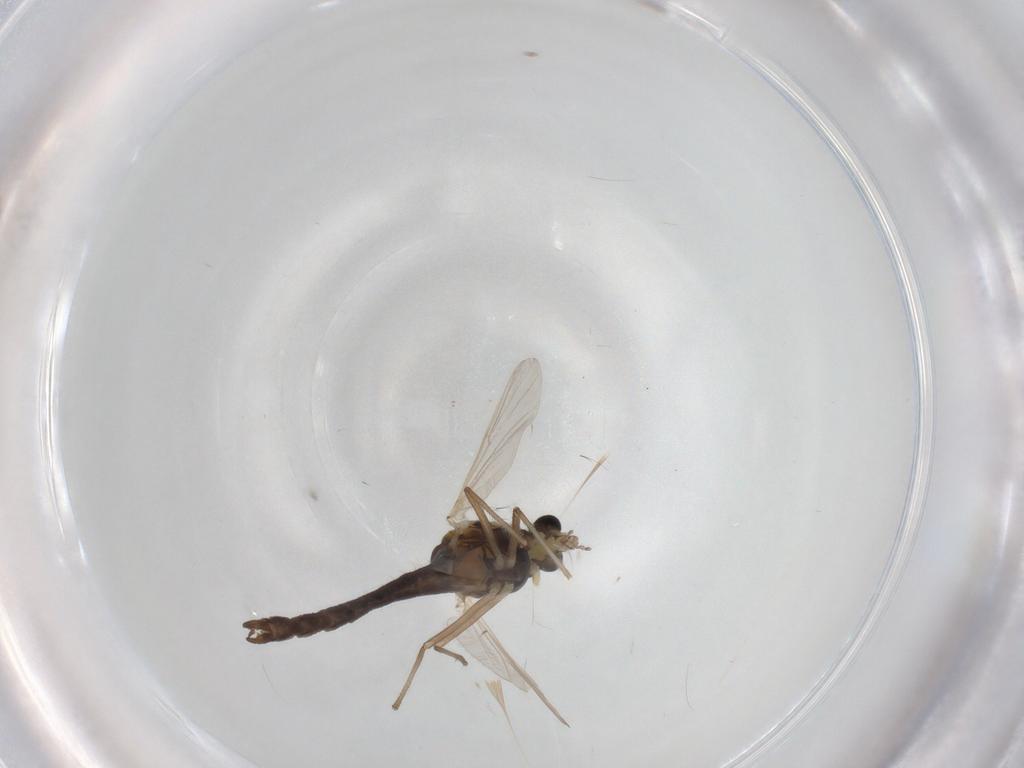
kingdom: Animalia
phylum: Arthropoda
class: Insecta
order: Diptera
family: Chironomidae
